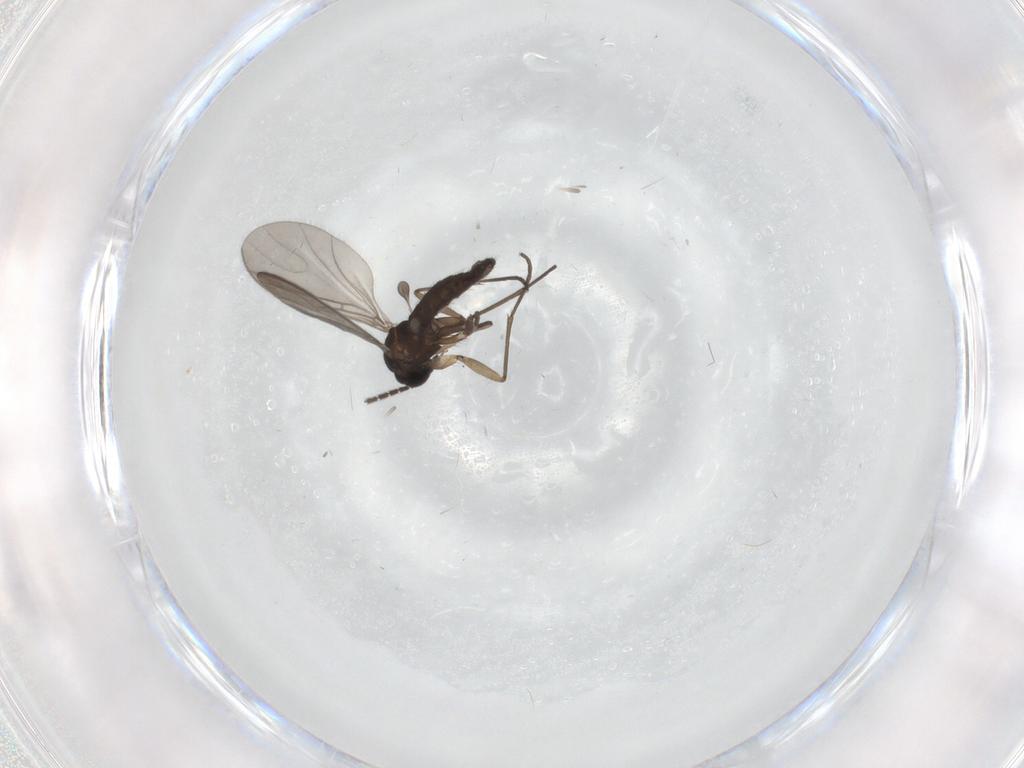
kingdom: Animalia
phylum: Arthropoda
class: Insecta
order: Diptera
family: Sciaridae
